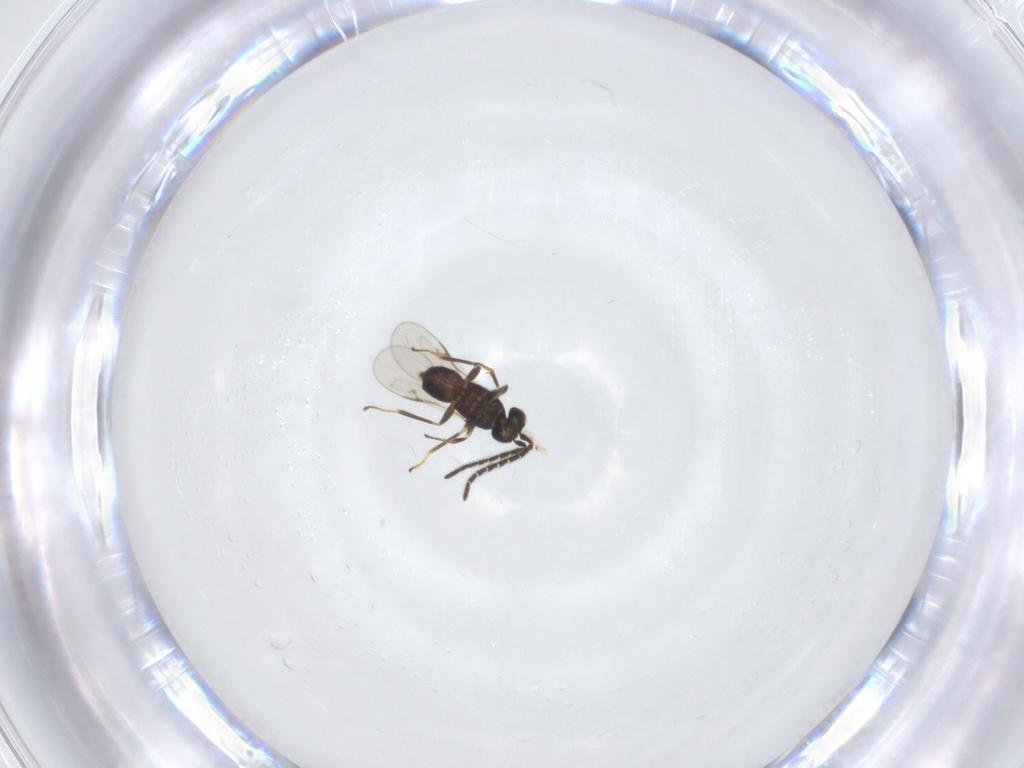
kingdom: Animalia
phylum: Arthropoda
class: Insecta
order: Hymenoptera
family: Encyrtidae
